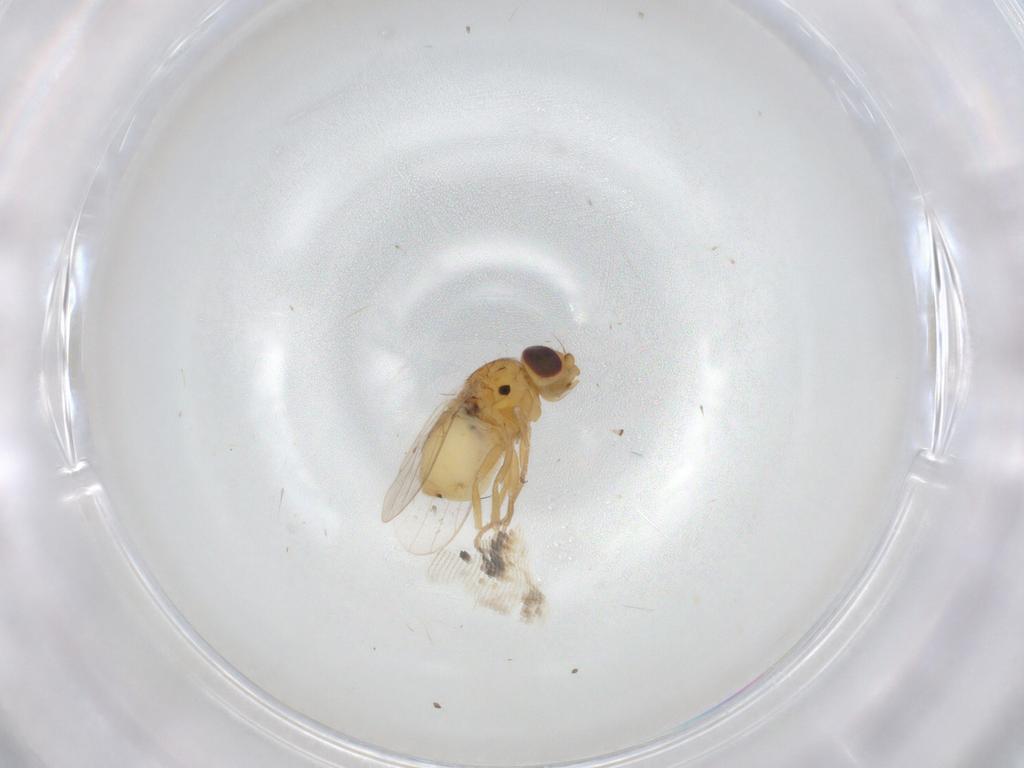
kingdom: Animalia
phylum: Arthropoda
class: Insecta
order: Diptera
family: Chloropidae
